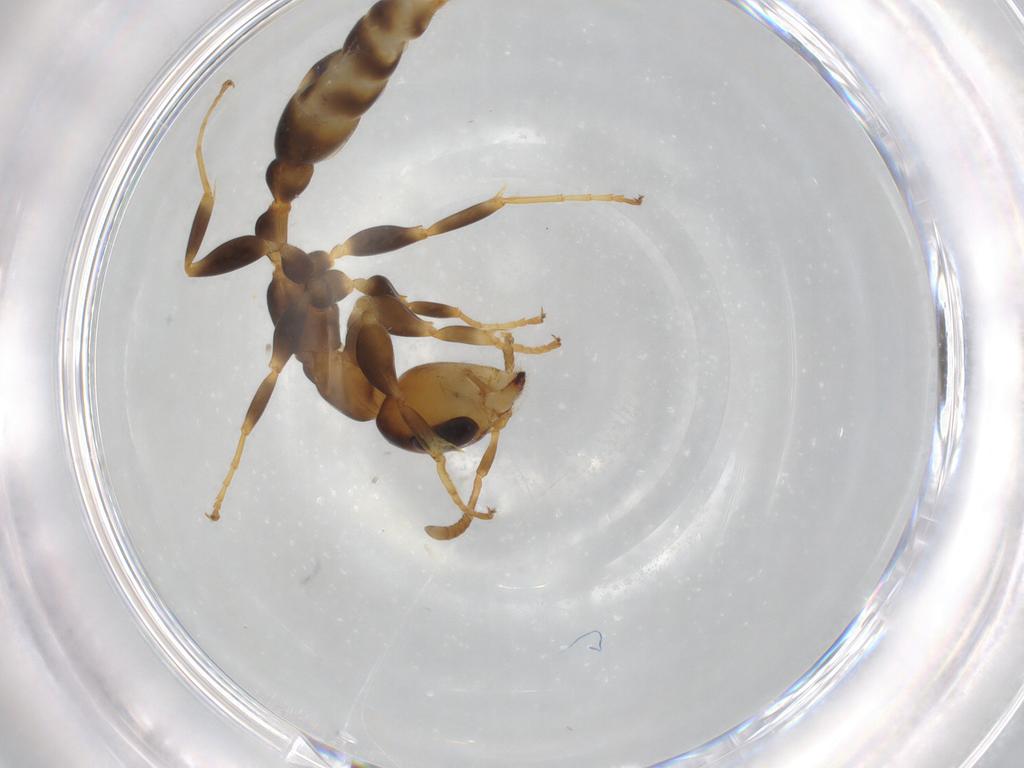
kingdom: Animalia
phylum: Arthropoda
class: Insecta
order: Hymenoptera
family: Formicidae
